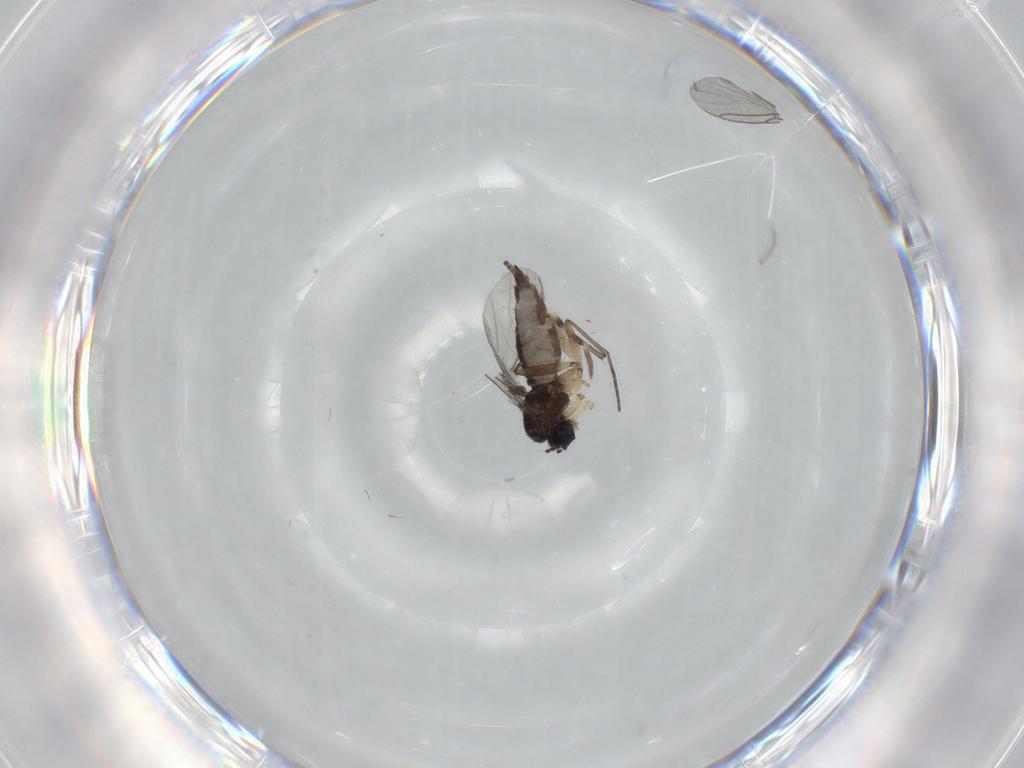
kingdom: Animalia
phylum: Arthropoda
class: Insecta
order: Diptera
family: Sciaridae
